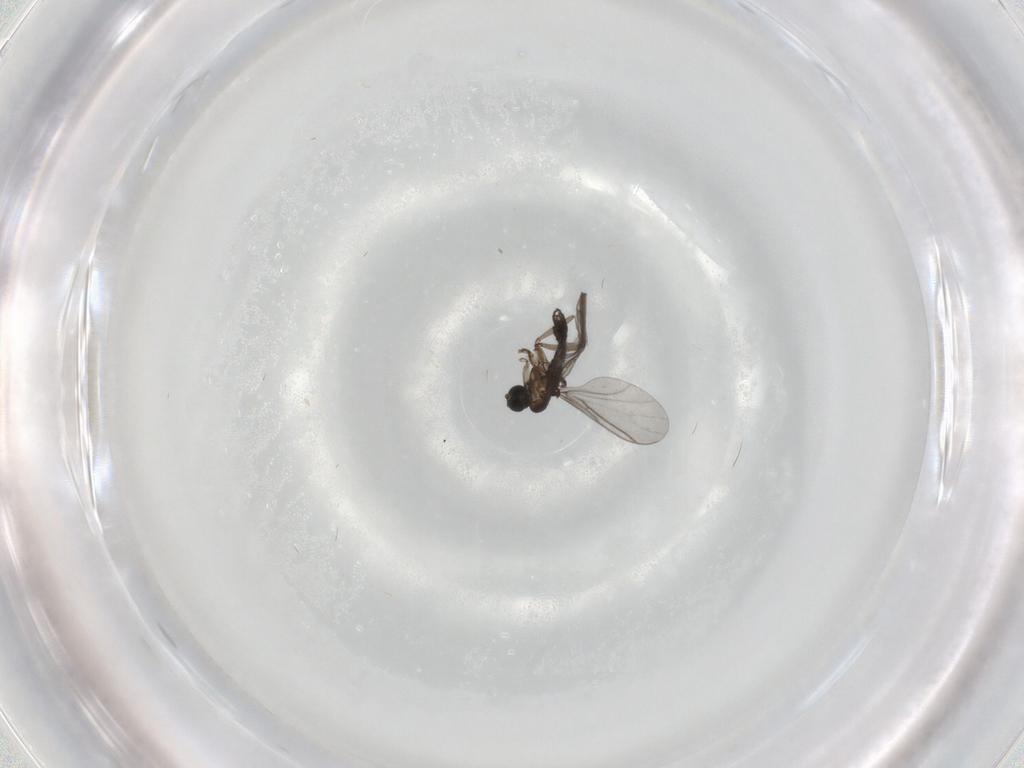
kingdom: Animalia
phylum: Arthropoda
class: Insecta
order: Diptera
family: Sciaridae
